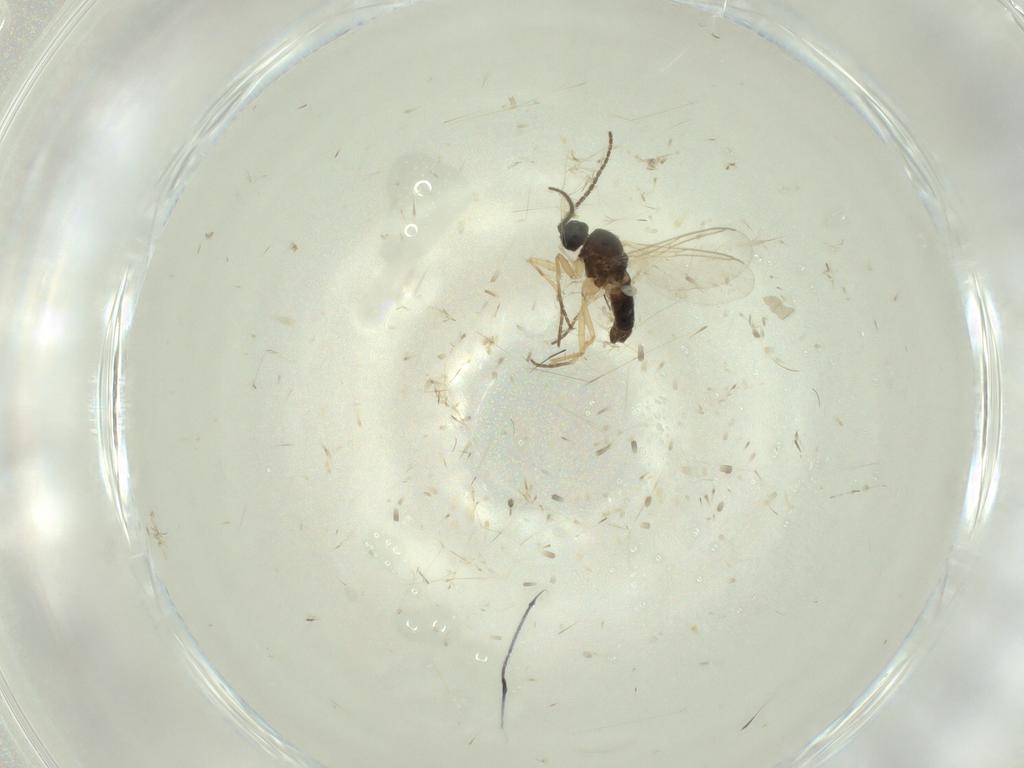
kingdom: Animalia
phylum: Arthropoda
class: Insecta
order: Diptera
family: Sciaridae
